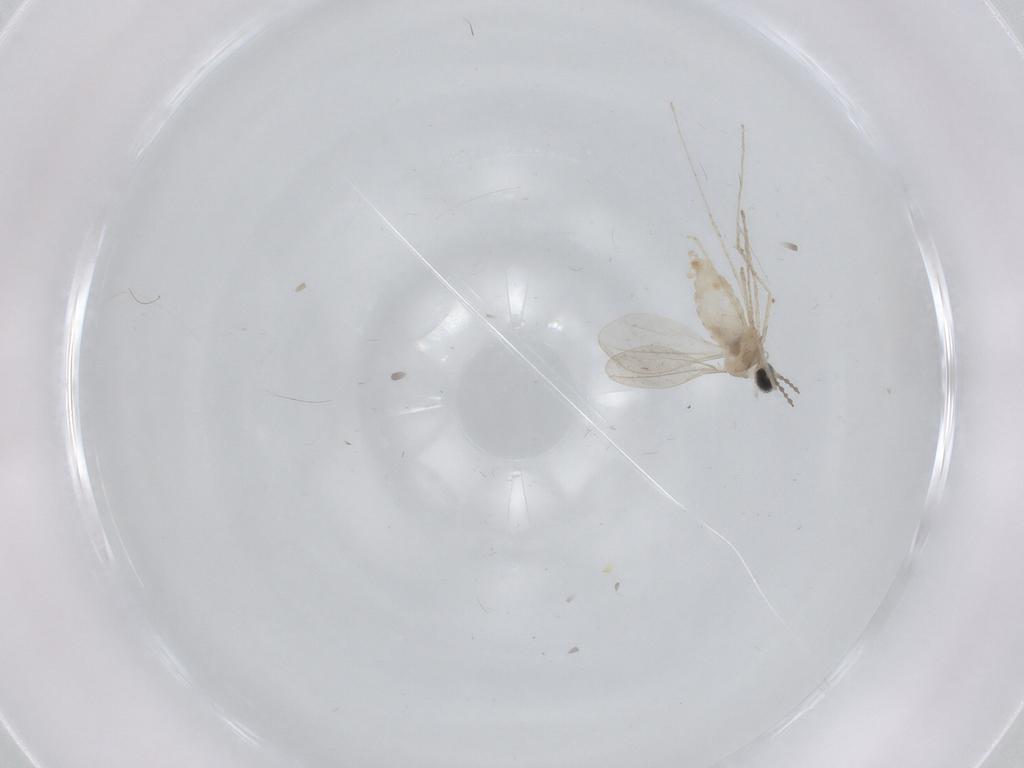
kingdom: Animalia
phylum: Arthropoda
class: Insecta
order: Diptera
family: Cecidomyiidae
